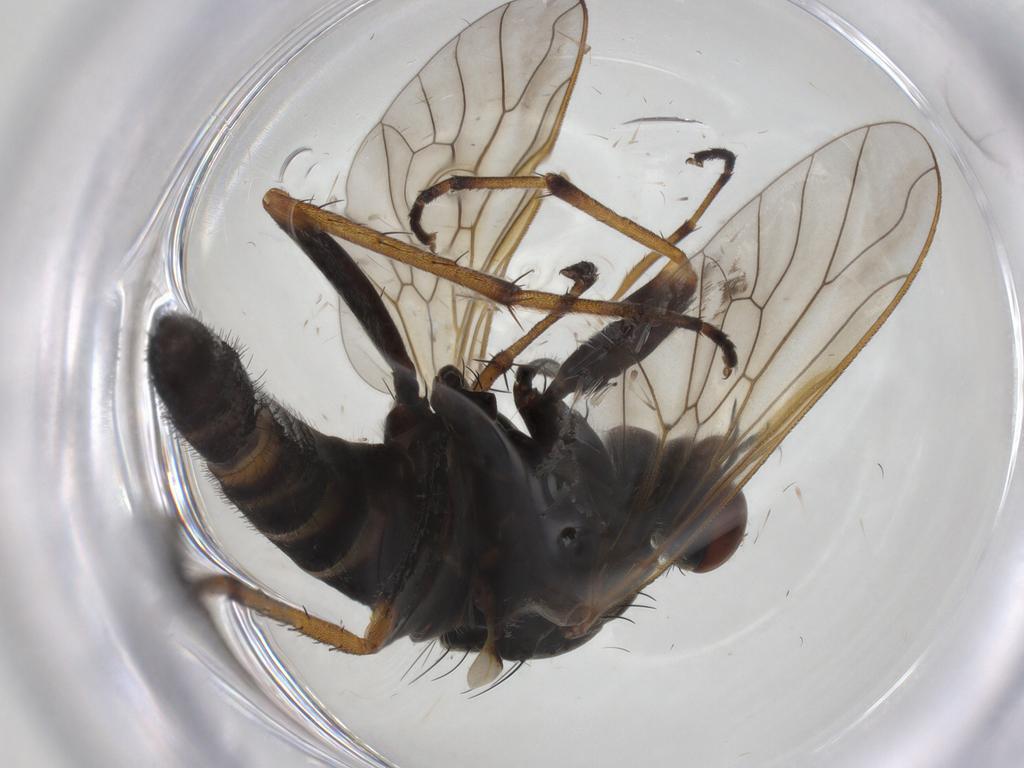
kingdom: Animalia
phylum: Arthropoda
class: Insecta
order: Diptera
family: Therevidae
